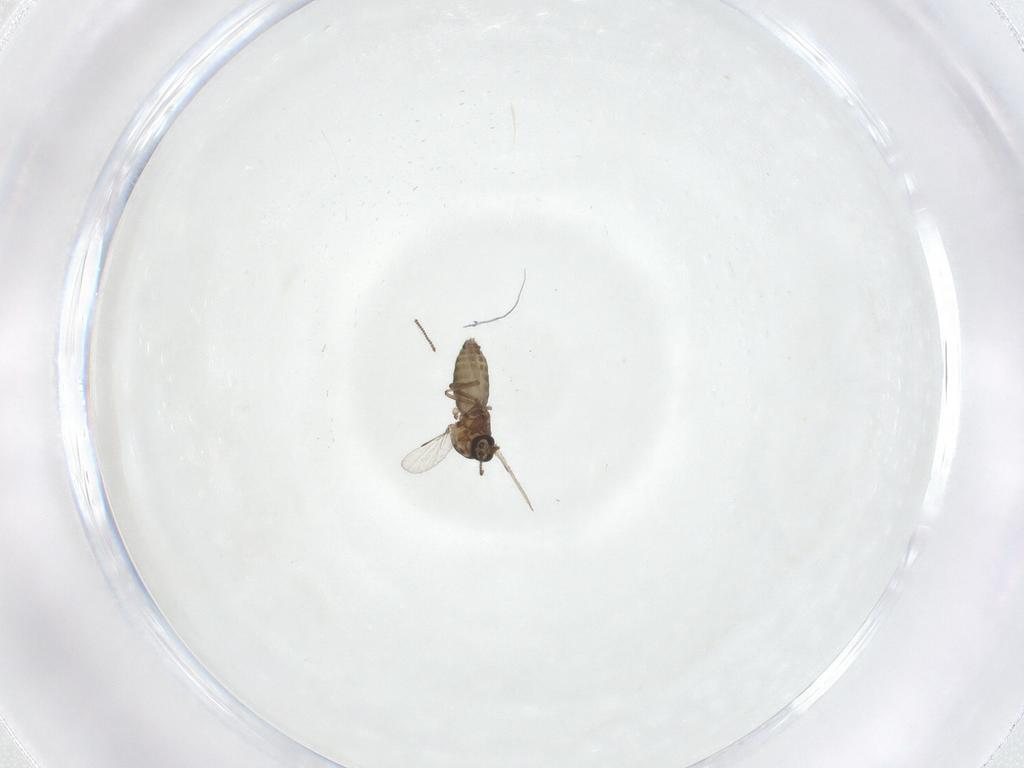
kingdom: Animalia
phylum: Arthropoda
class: Insecta
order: Diptera
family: Ceratopogonidae
